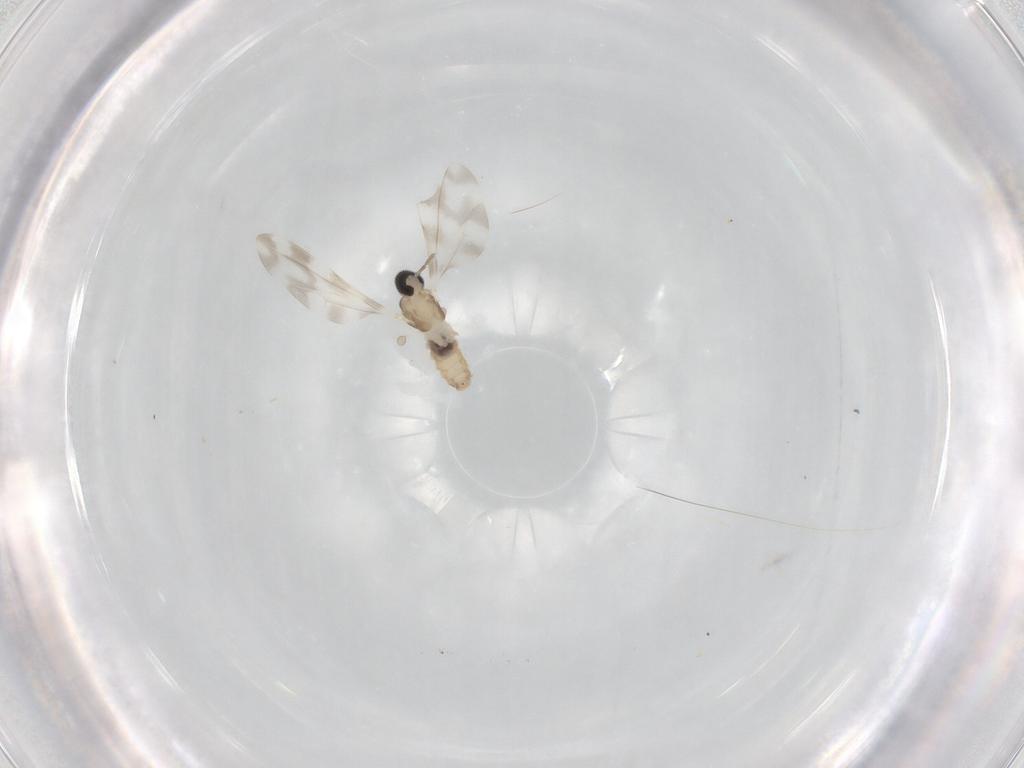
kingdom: Animalia
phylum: Arthropoda
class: Insecta
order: Diptera
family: Cecidomyiidae
